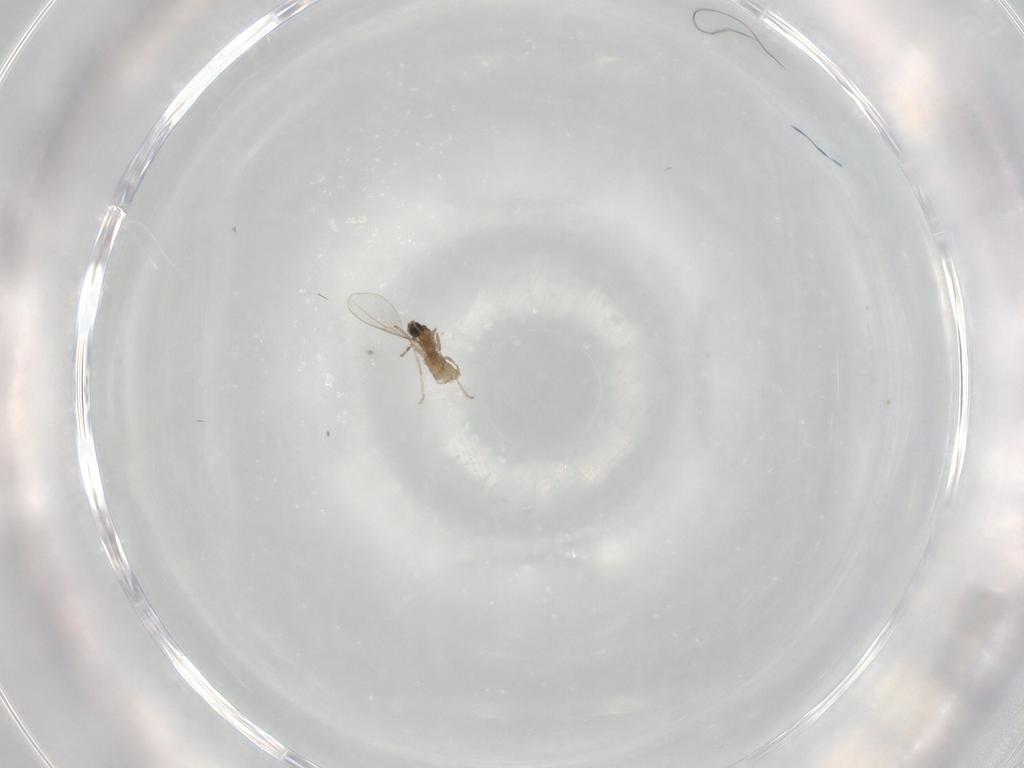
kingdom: Animalia
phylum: Arthropoda
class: Insecta
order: Diptera
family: Cecidomyiidae
